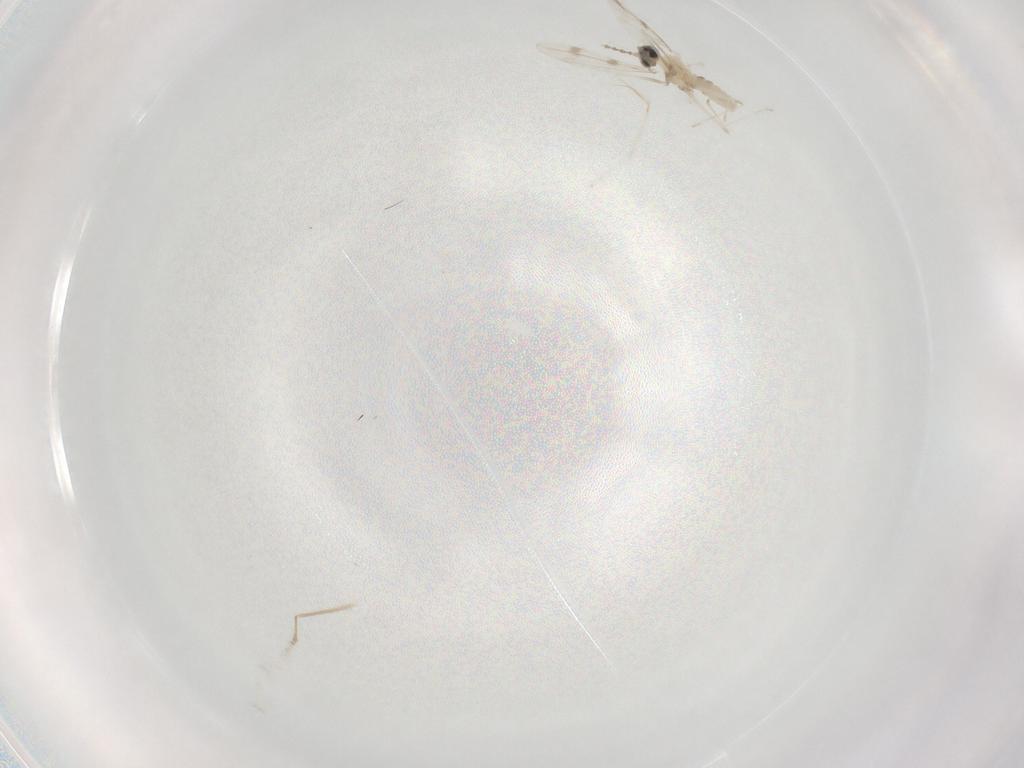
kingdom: Animalia
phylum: Arthropoda
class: Insecta
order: Diptera
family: Cecidomyiidae
